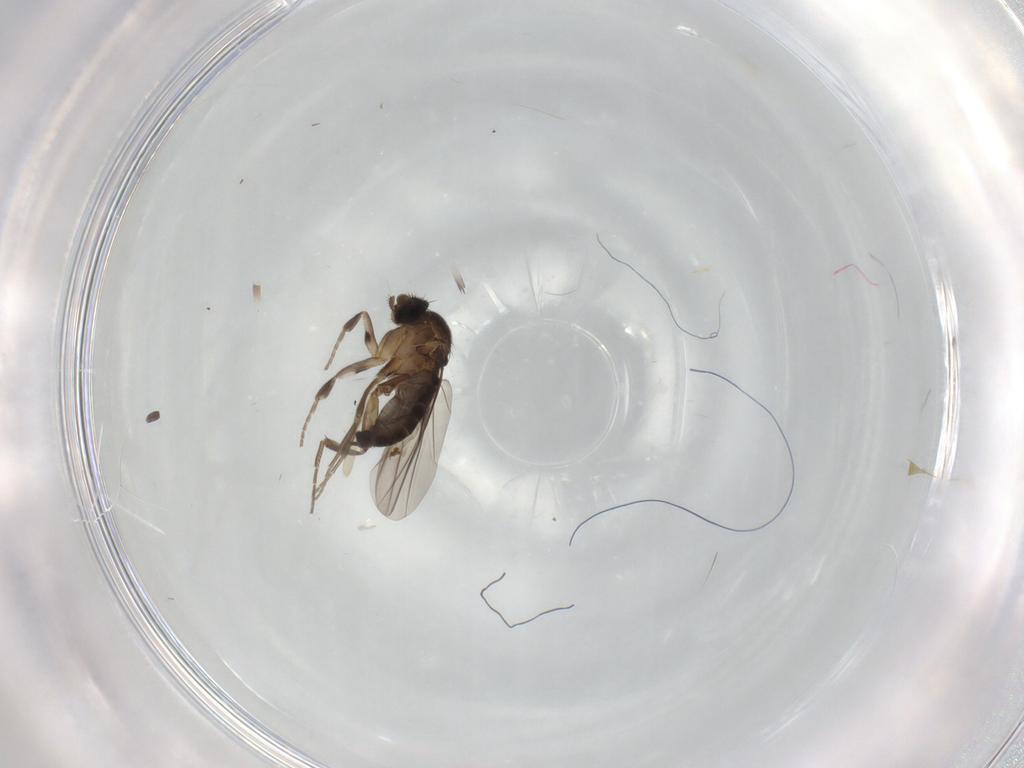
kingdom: Animalia
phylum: Arthropoda
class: Insecta
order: Diptera
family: Phoridae
